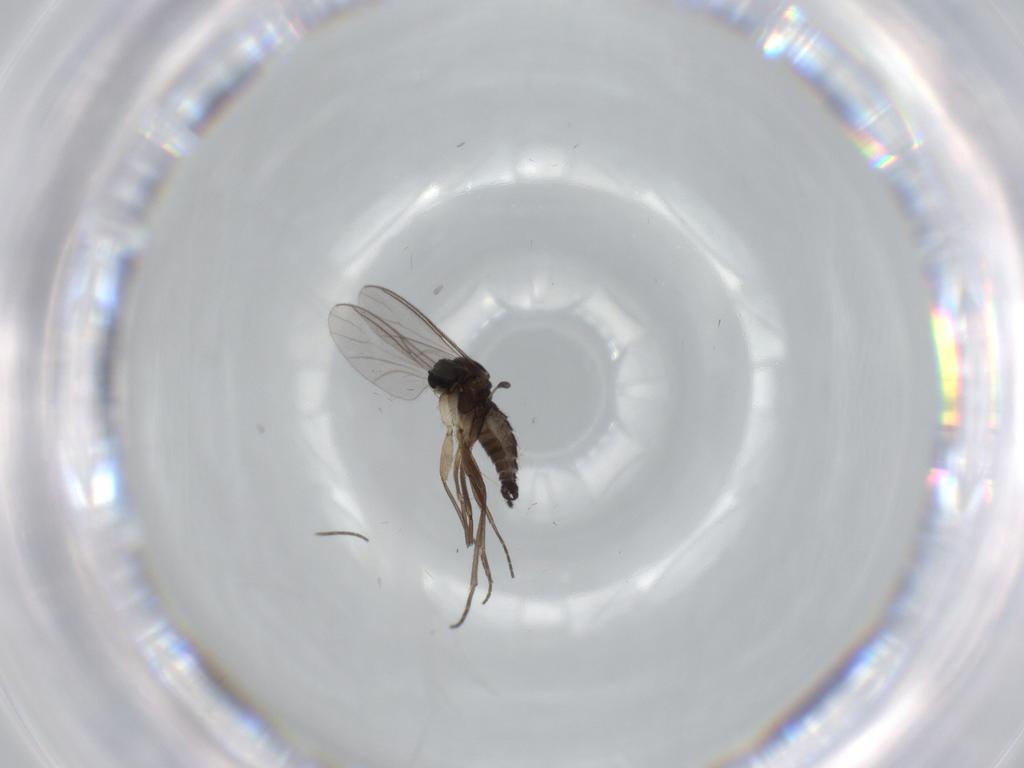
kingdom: Animalia
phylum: Arthropoda
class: Insecta
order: Diptera
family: Sciaridae
